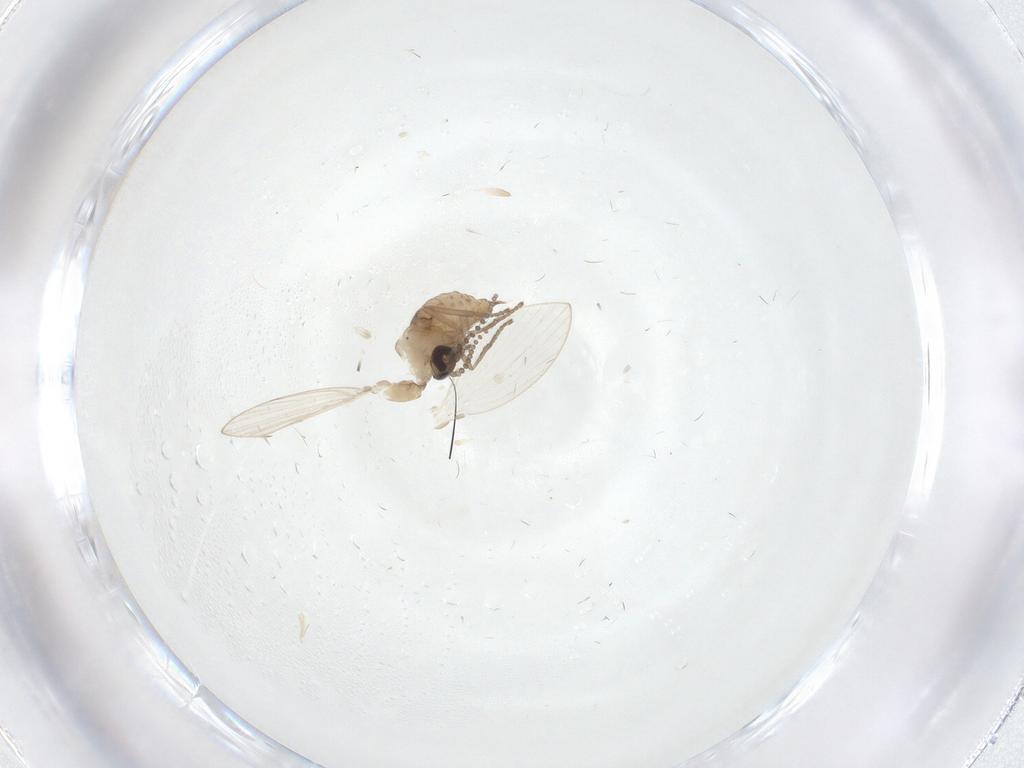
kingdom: Animalia
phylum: Arthropoda
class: Insecta
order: Diptera
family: Psychodidae
